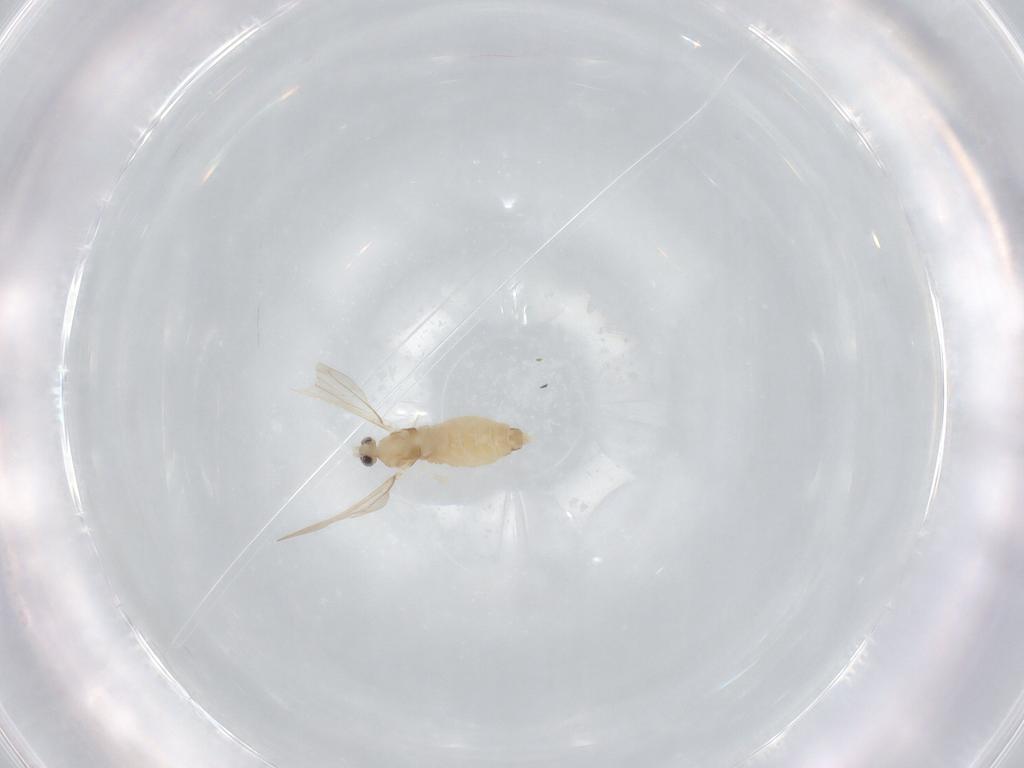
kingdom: Animalia
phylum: Arthropoda
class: Insecta
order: Diptera
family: Cecidomyiidae
